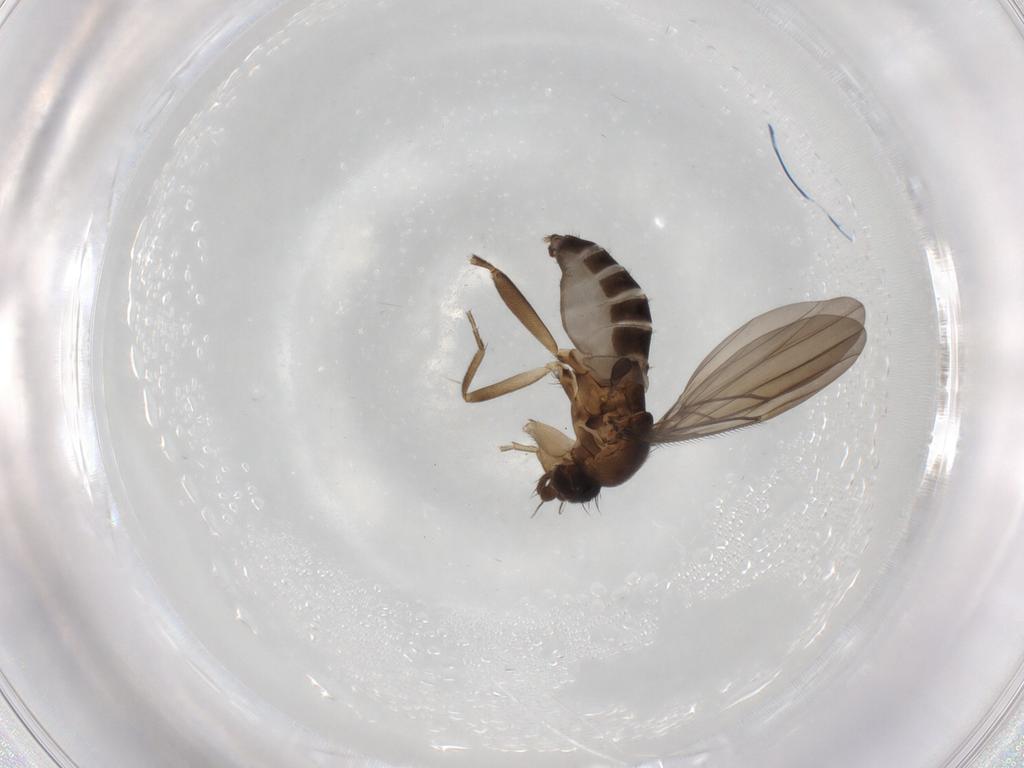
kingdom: Animalia
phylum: Arthropoda
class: Insecta
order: Diptera
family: Phoridae
